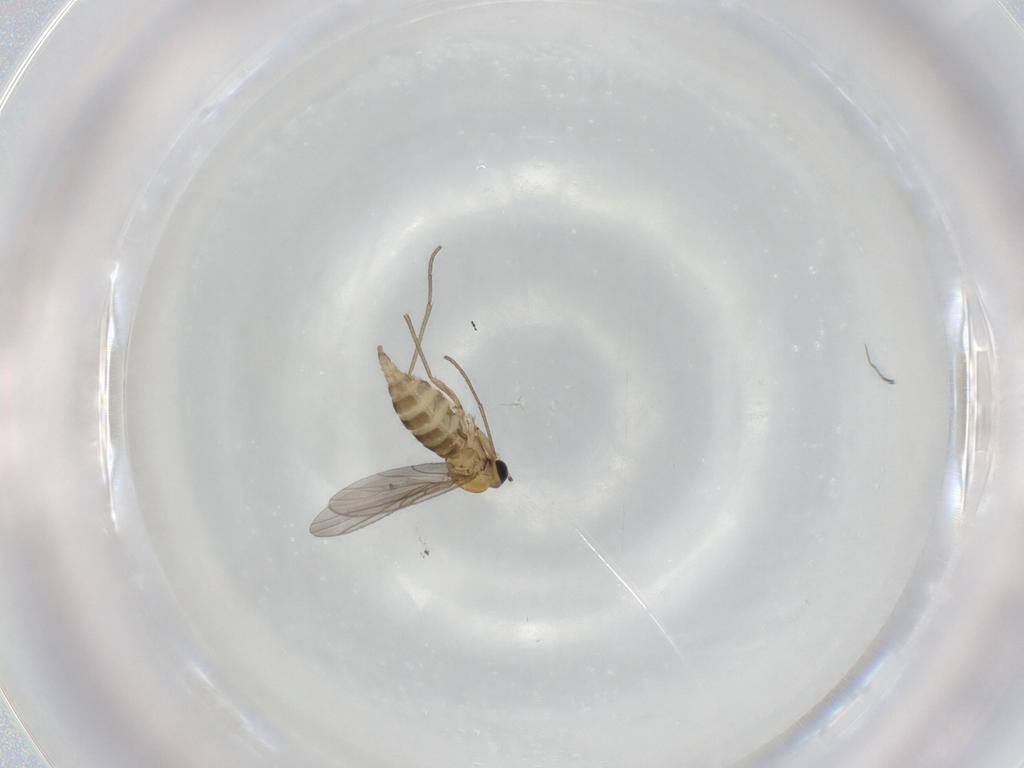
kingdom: Animalia
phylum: Arthropoda
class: Insecta
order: Diptera
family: Sciaridae
